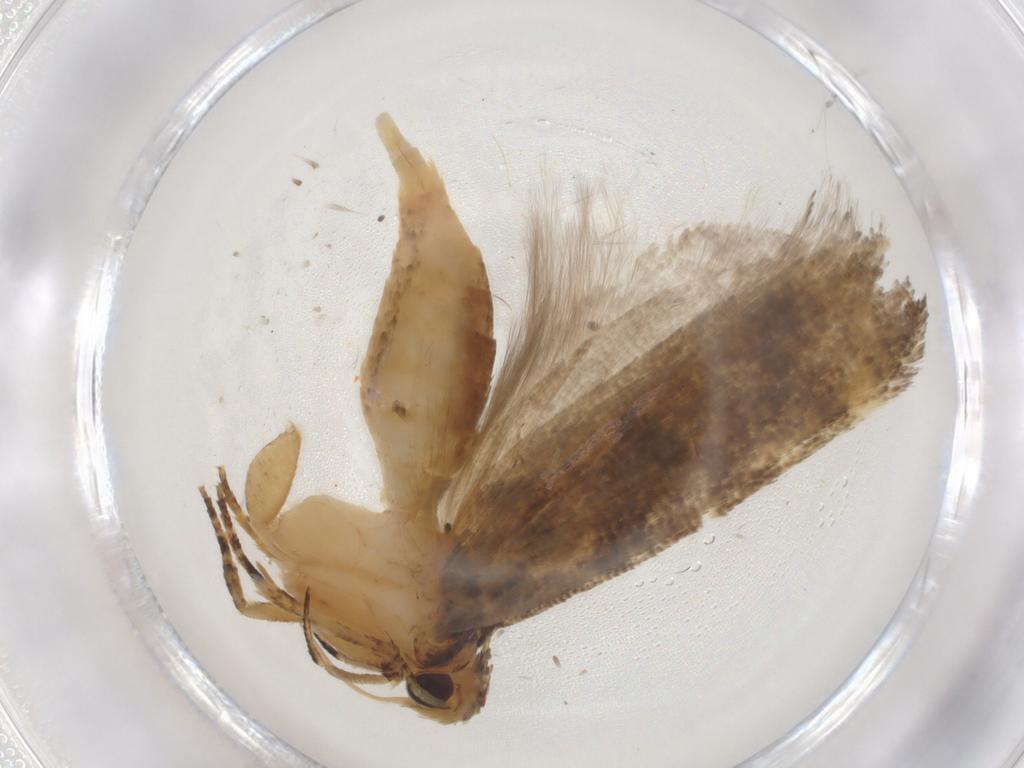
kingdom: Animalia
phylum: Arthropoda
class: Insecta
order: Lepidoptera
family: Gelechiidae
